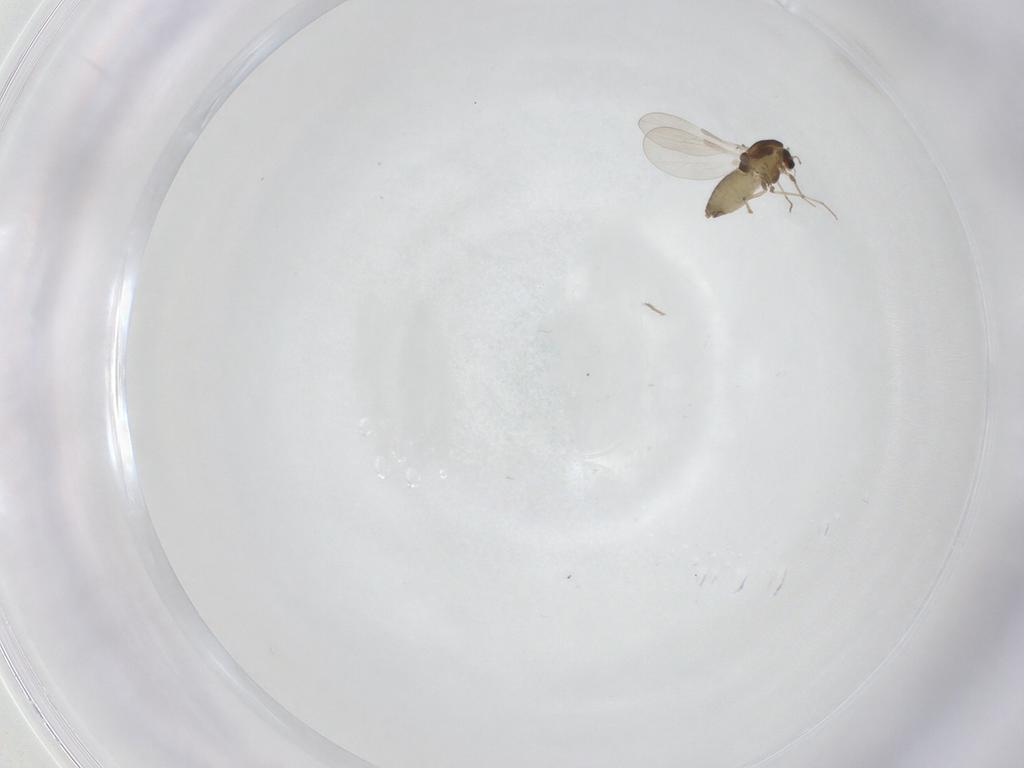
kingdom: Animalia
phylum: Arthropoda
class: Insecta
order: Diptera
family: Chironomidae
